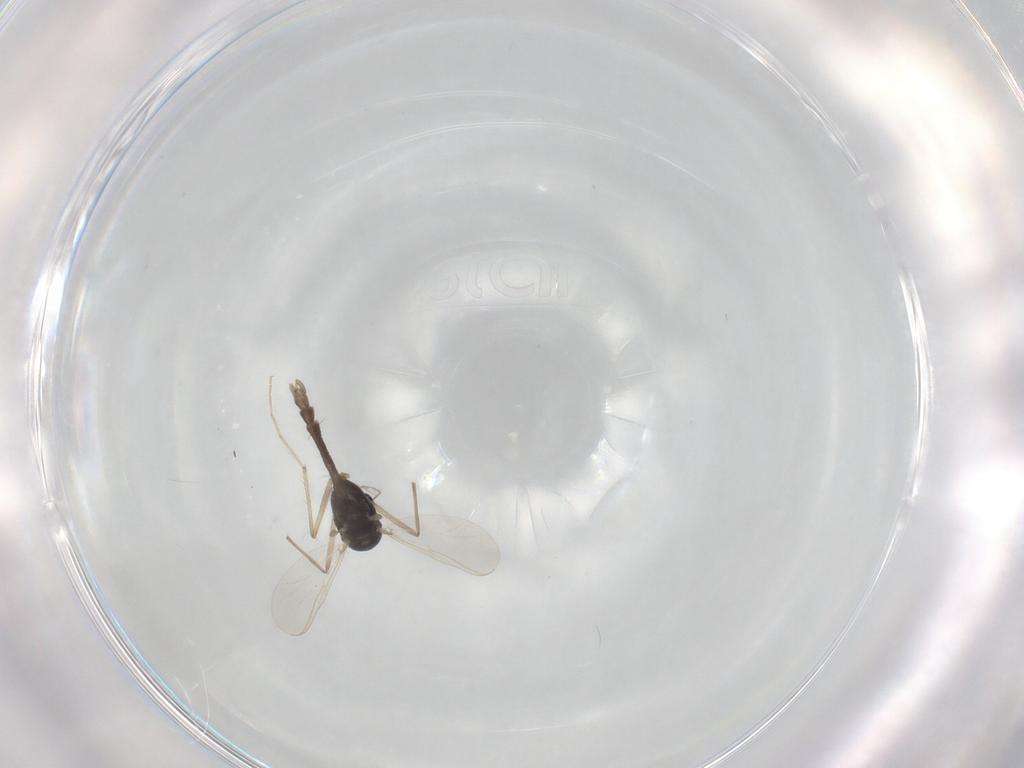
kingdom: Animalia
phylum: Arthropoda
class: Insecta
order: Diptera
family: Chironomidae
